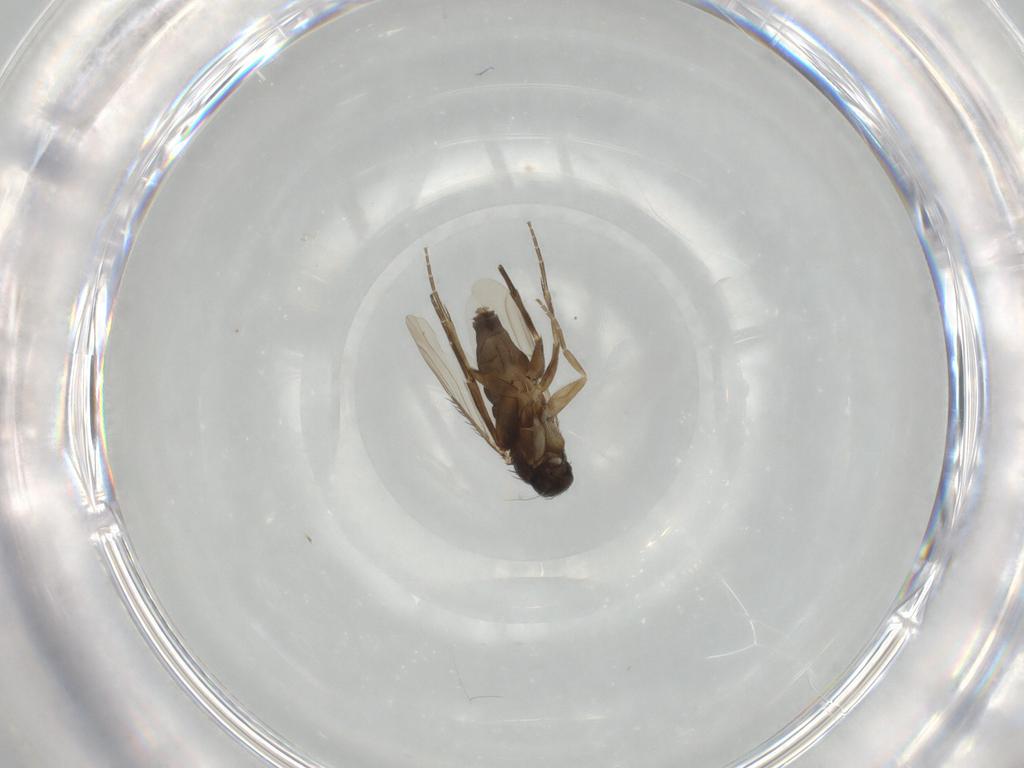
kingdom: Animalia
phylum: Arthropoda
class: Insecta
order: Diptera
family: Phoridae
